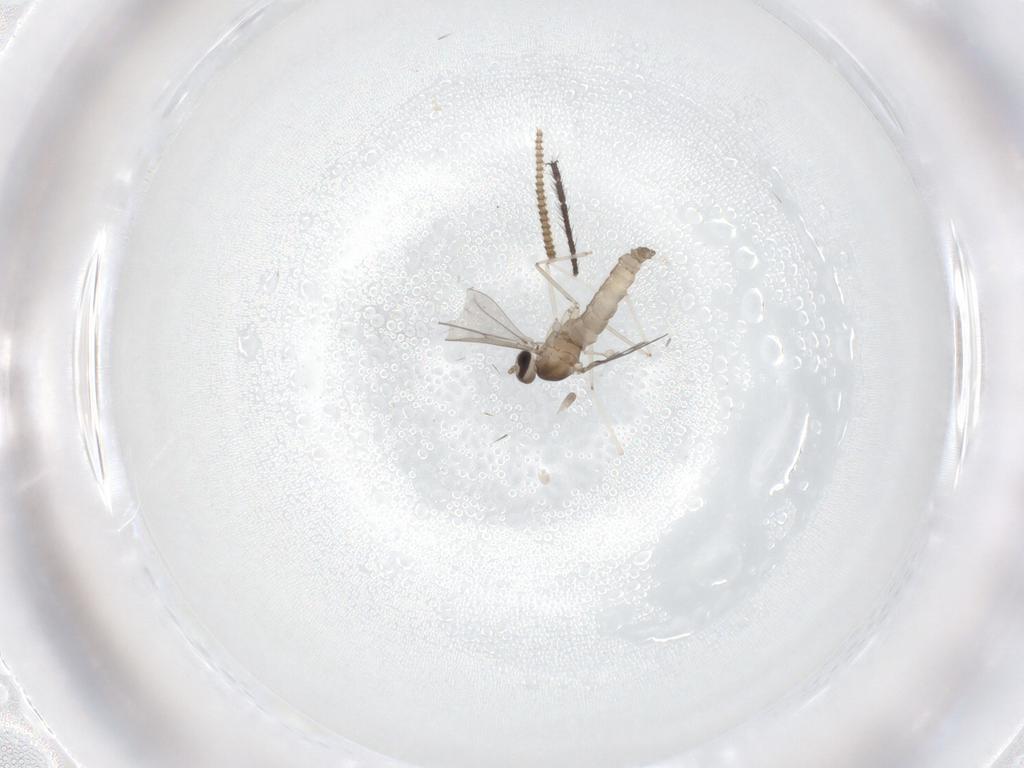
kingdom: Animalia
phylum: Arthropoda
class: Insecta
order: Diptera
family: Limoniidae
